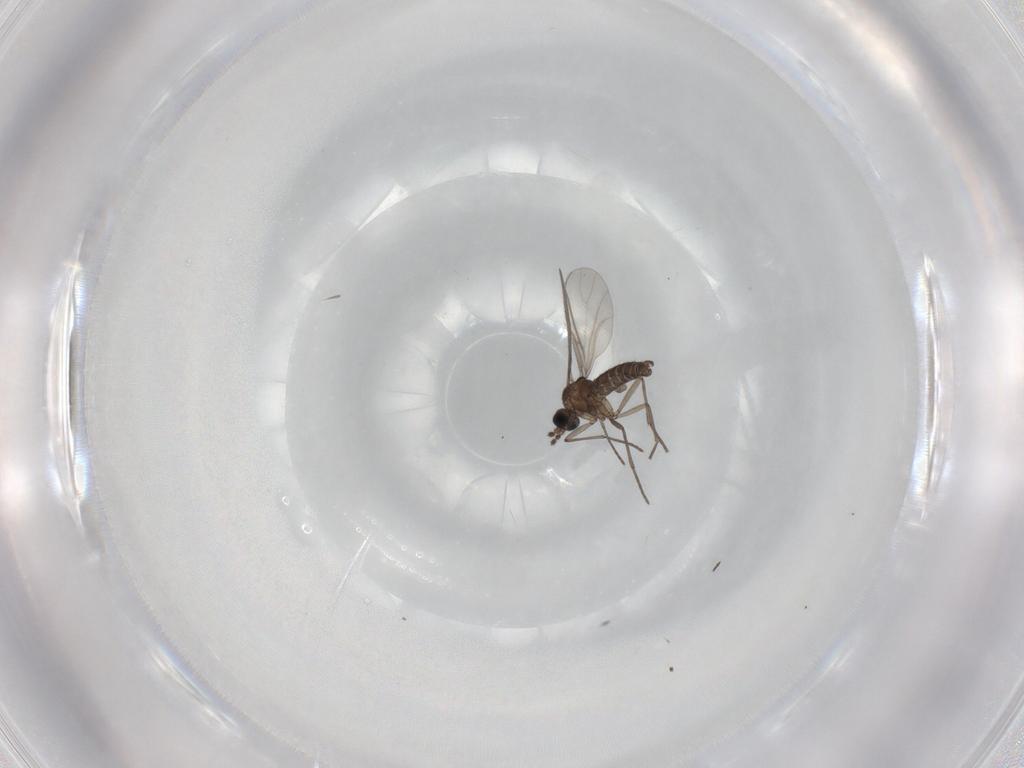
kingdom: Animalia
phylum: Arthropoda
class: Insecta
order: Diptera
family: Sciaridae
